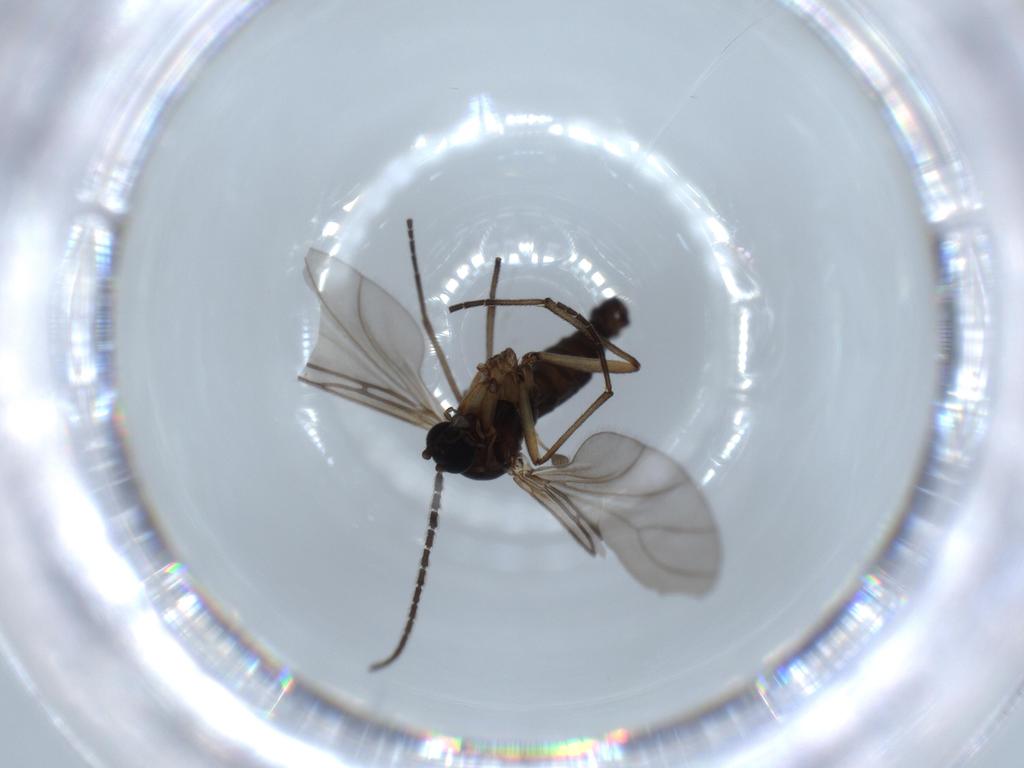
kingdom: Animalia
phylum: Arthropoda
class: Insecta
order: Diptera
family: Sciaridae
